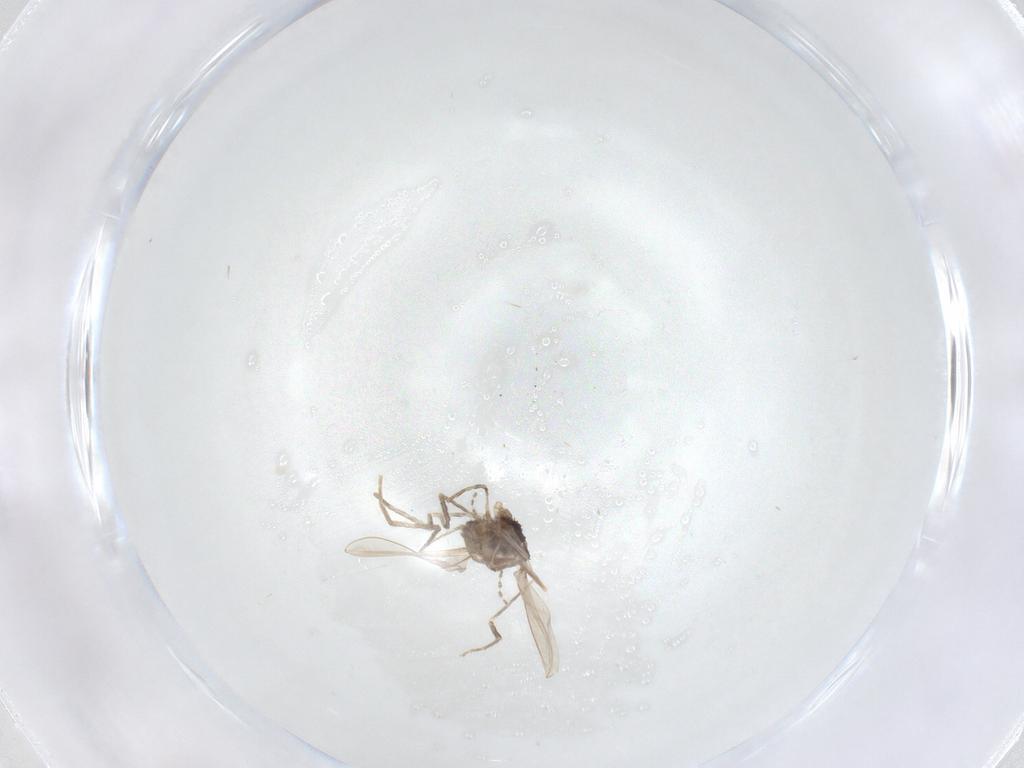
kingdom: Animalia
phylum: Arthropoda
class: Insecta
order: Diptera
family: Cecidomyiidae
